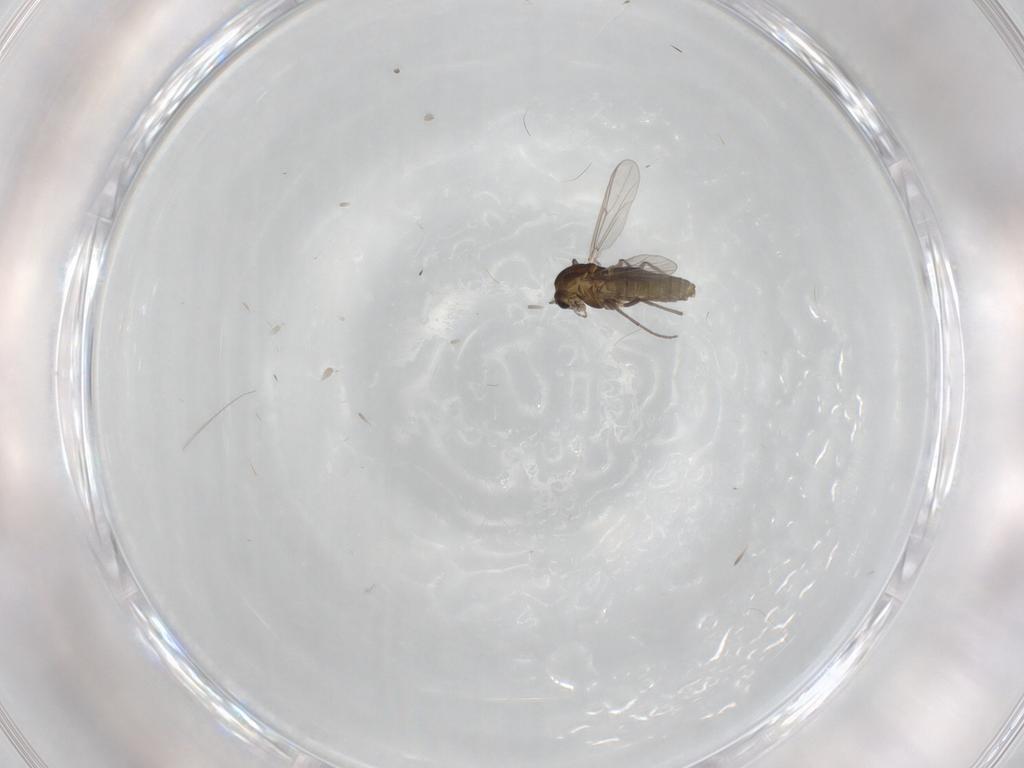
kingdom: Animalia
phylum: Arthropoda
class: Insecta
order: Diptera
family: Chironomidae
